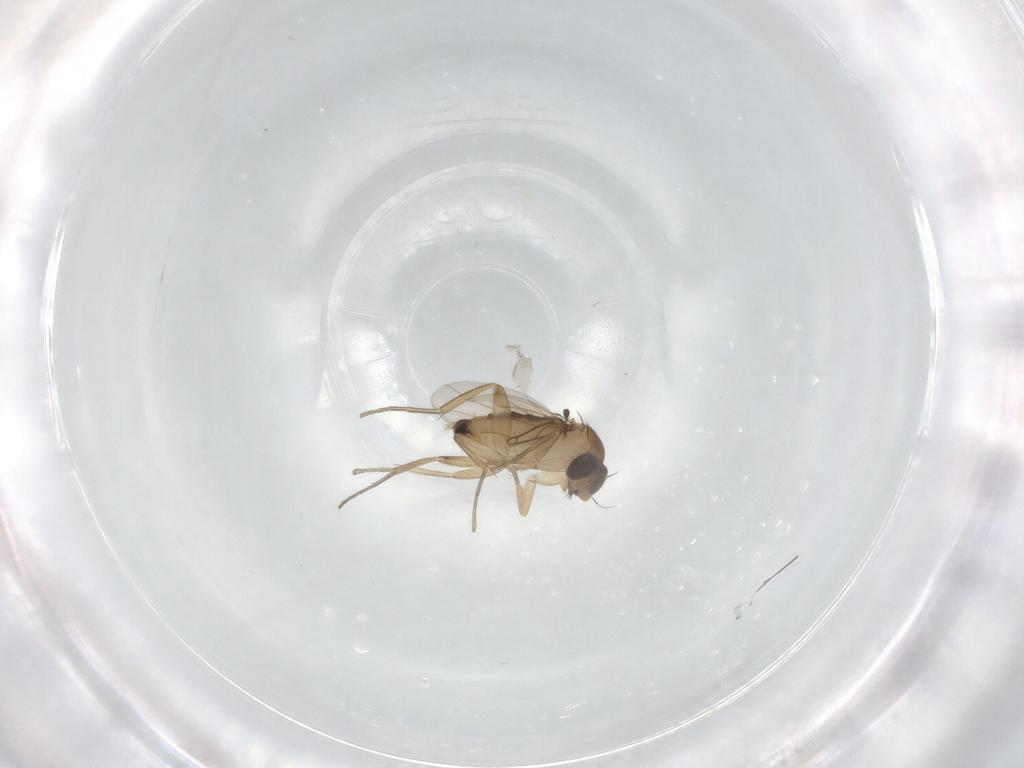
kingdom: Animalia
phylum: Arthropoda
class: Insecta
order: Diptera
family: Phoridae
